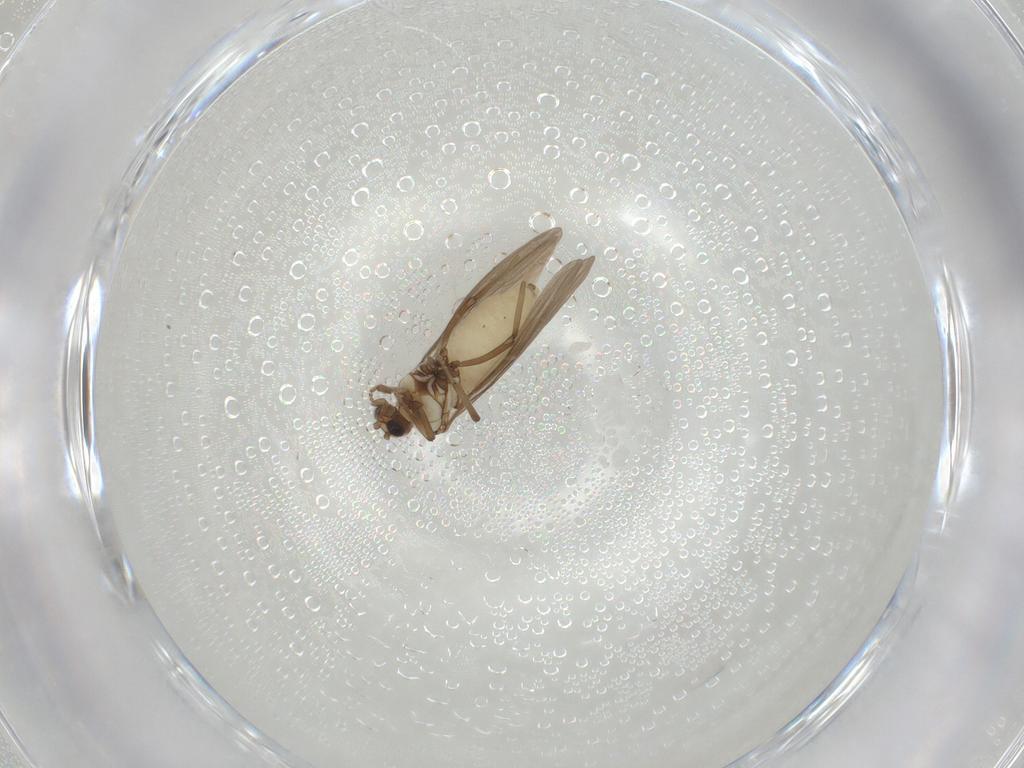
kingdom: Animalia
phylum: Arthropoda
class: Insecta
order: Neuroptera
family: Coniopterygidae
